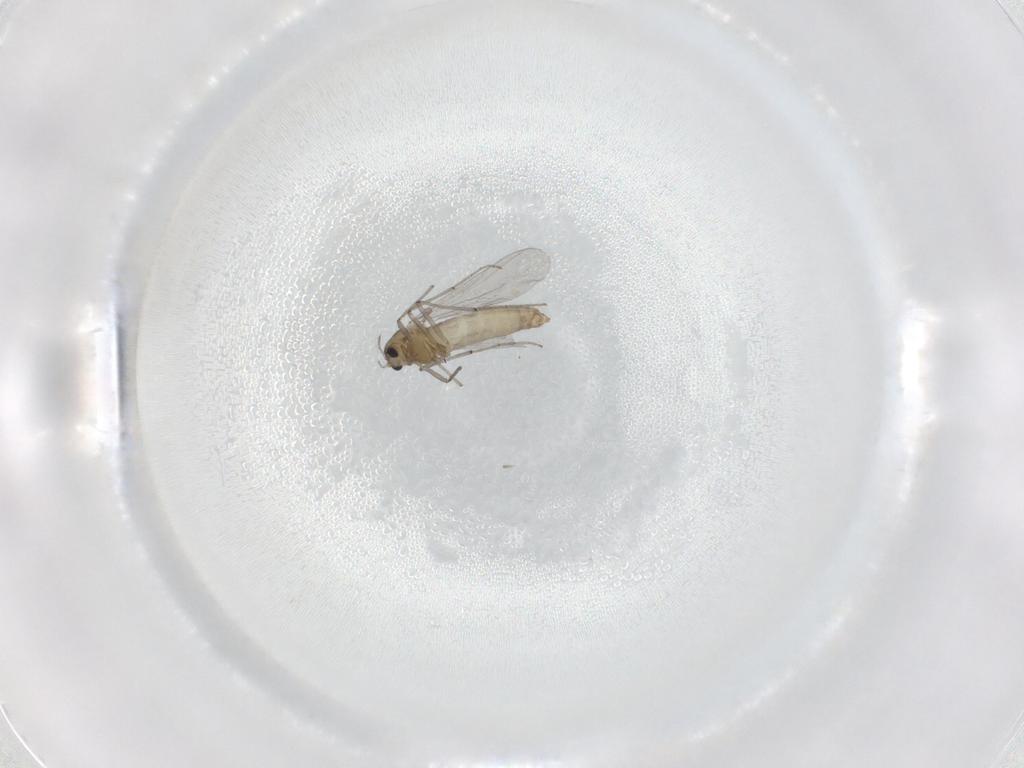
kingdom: Animalia
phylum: Arthropoda
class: Insecta
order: Diptera
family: Chironomidae
